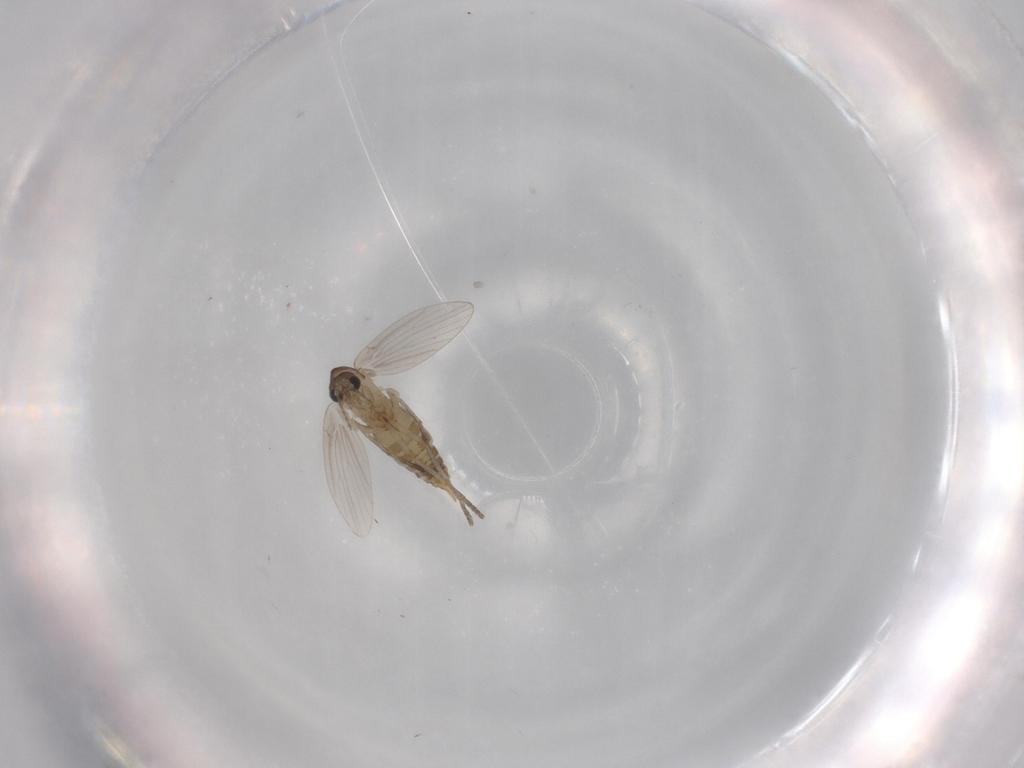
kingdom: Animalia
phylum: Arthropoda
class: Insecta
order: Diptera
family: Psychodidae
